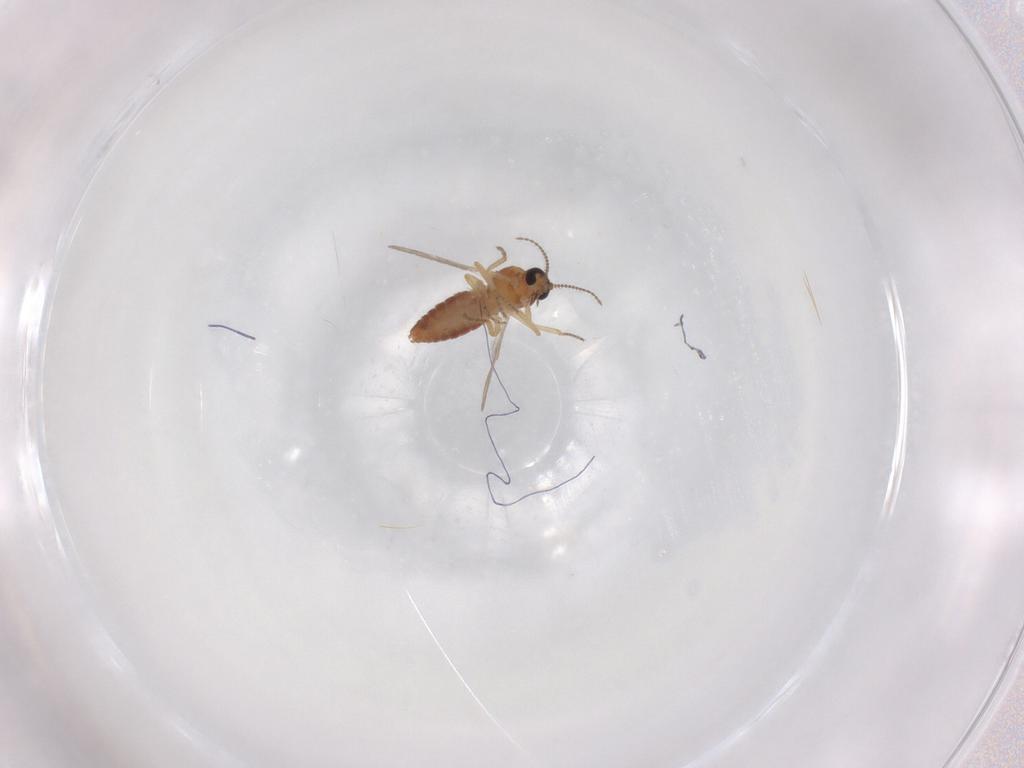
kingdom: Animalia
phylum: Arthropoda
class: Insecta
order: Diptera
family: Ceratopogonidae
